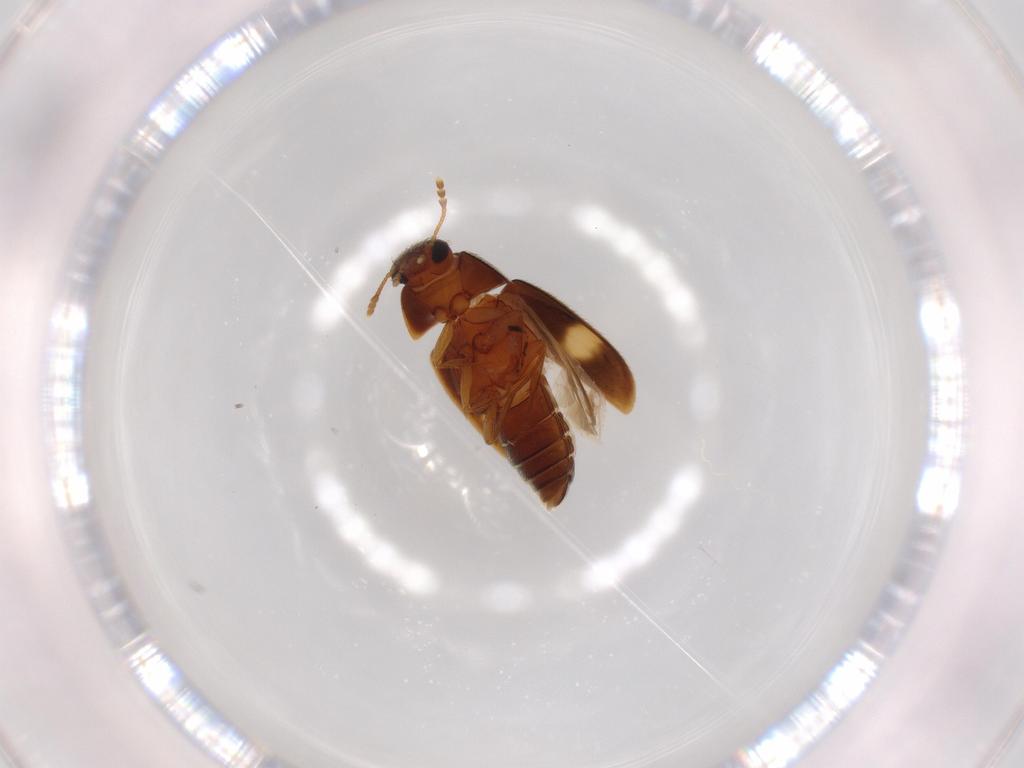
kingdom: Animalia
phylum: Arthropoda
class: Insecta
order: Coleoptera
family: Mycetophagidae
